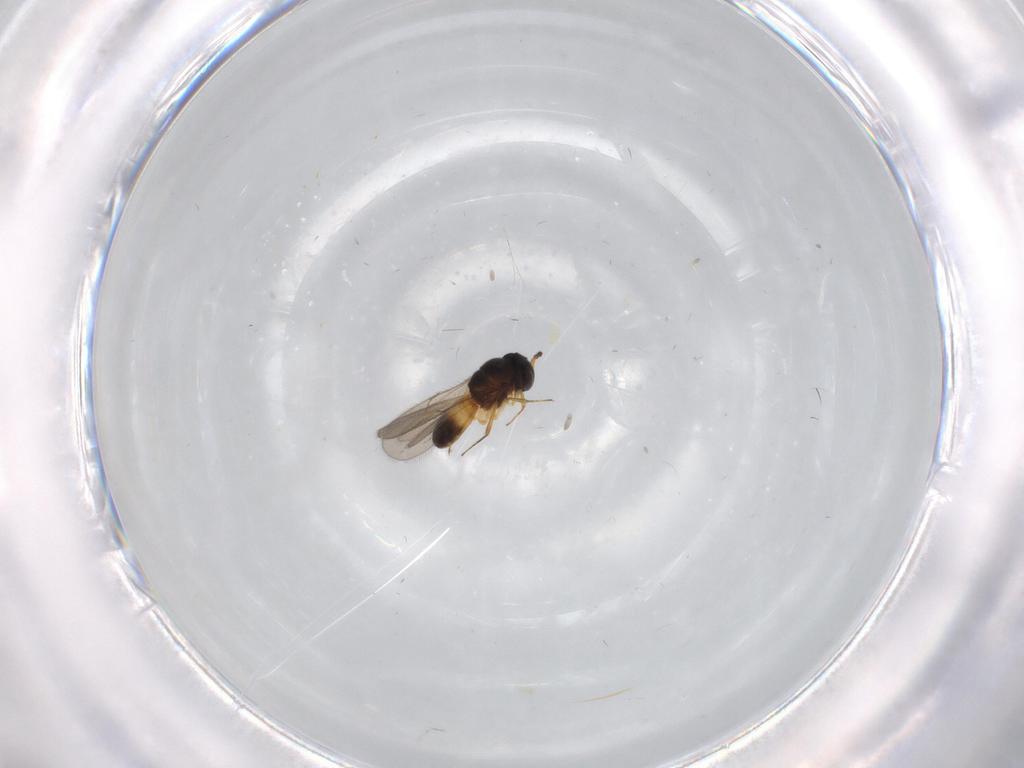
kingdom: Animalia
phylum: Arthropoda
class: Insecta
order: Hymenoptera
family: Scelionidae
